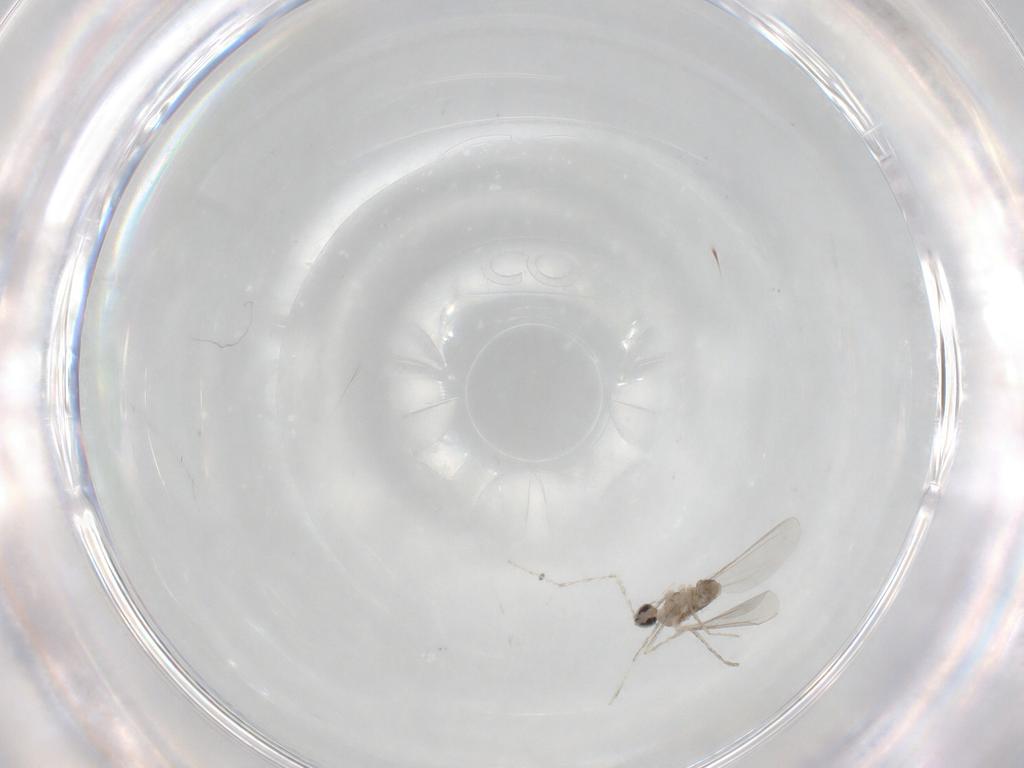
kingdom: Animalia
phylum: Arthropoda
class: Insecta
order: Diptera
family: Cecidomyiidae
